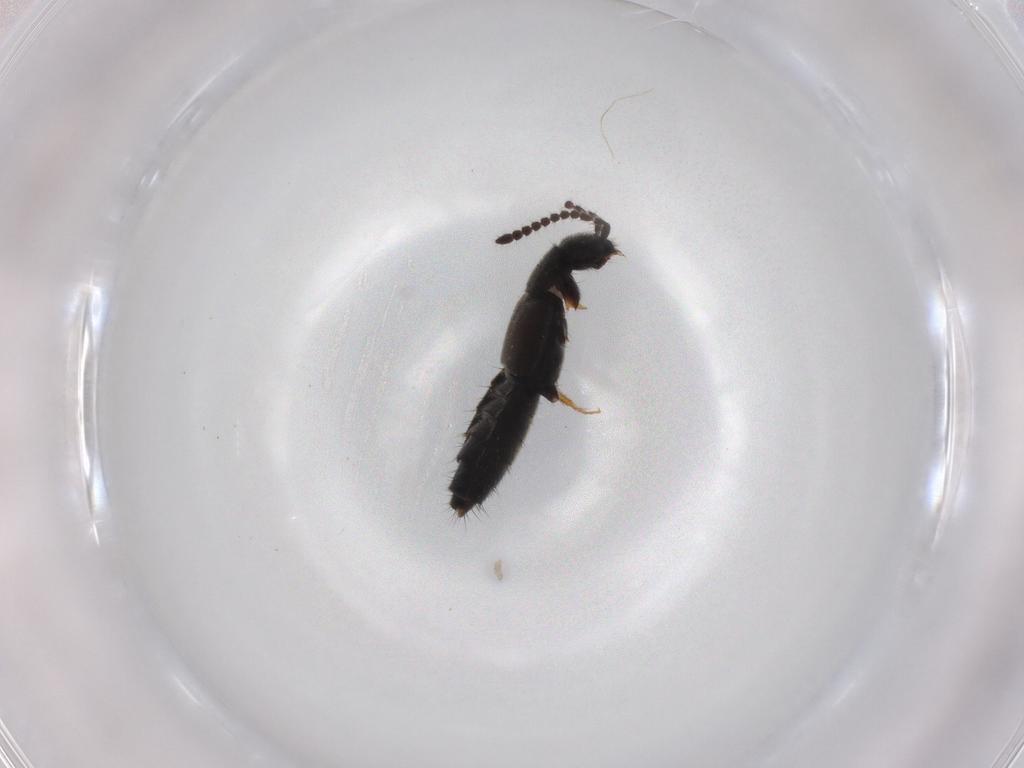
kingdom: Animalia
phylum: Arthropoda
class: Insecta
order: Coleoptera
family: Staphylinidae
